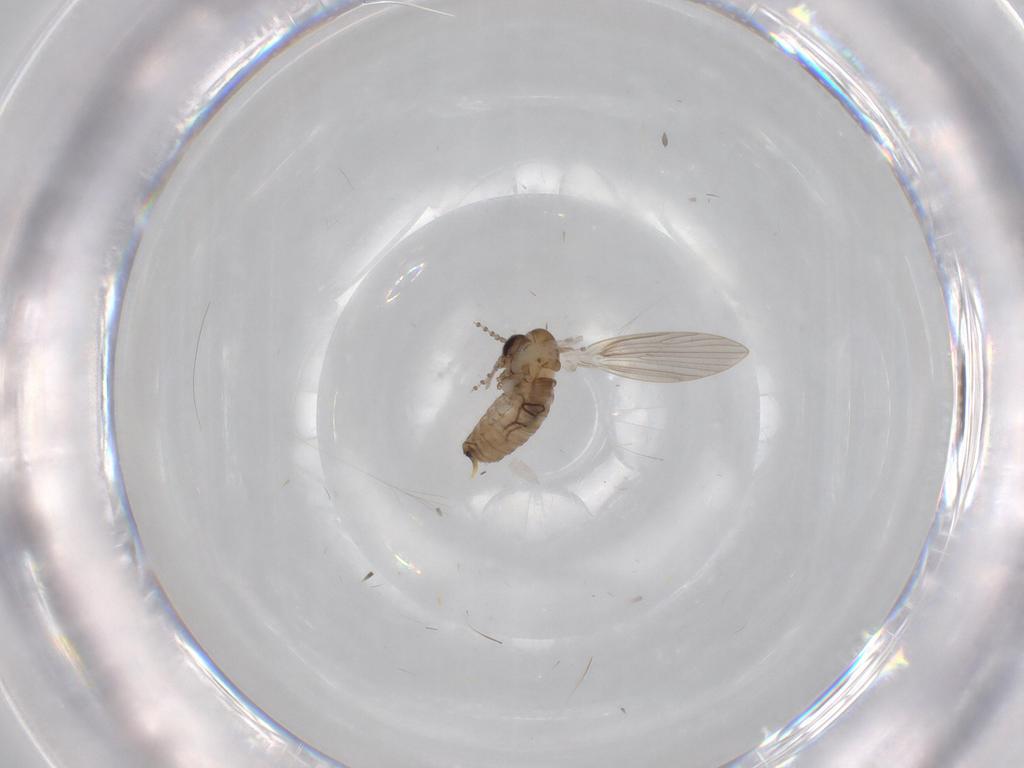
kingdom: Animalia
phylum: Arthropoda
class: Insecta
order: Diptera
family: Psychodidae
